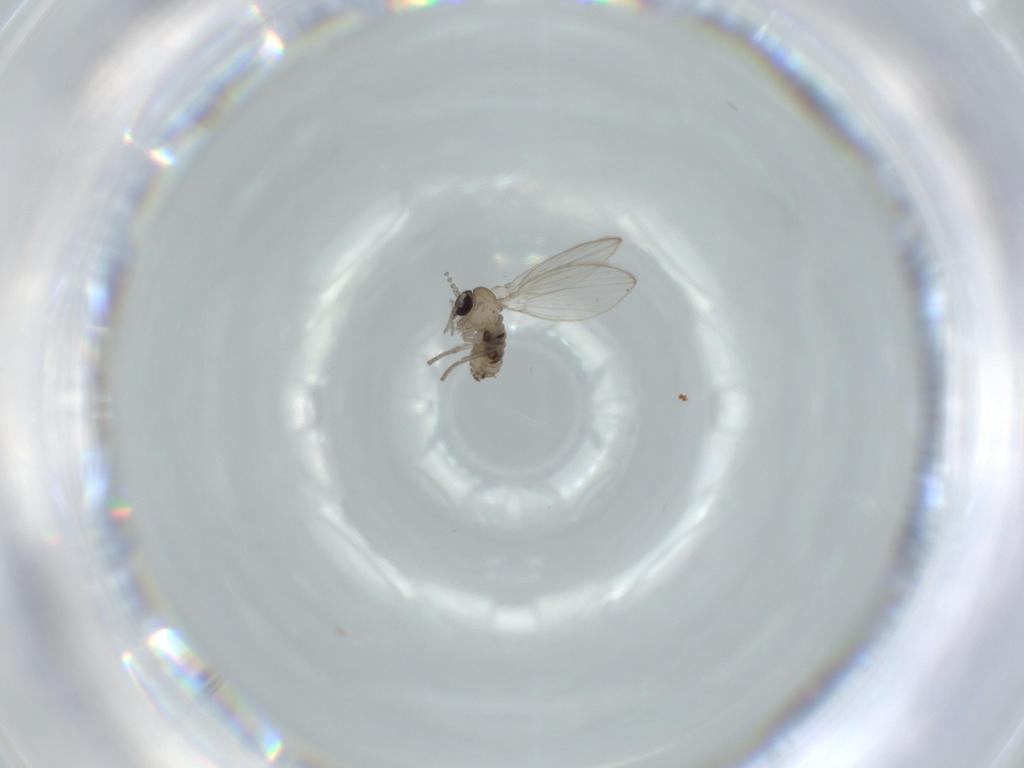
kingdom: Animalia
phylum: Arthropoda
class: Insecta
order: Diptera
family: Psychodidae
